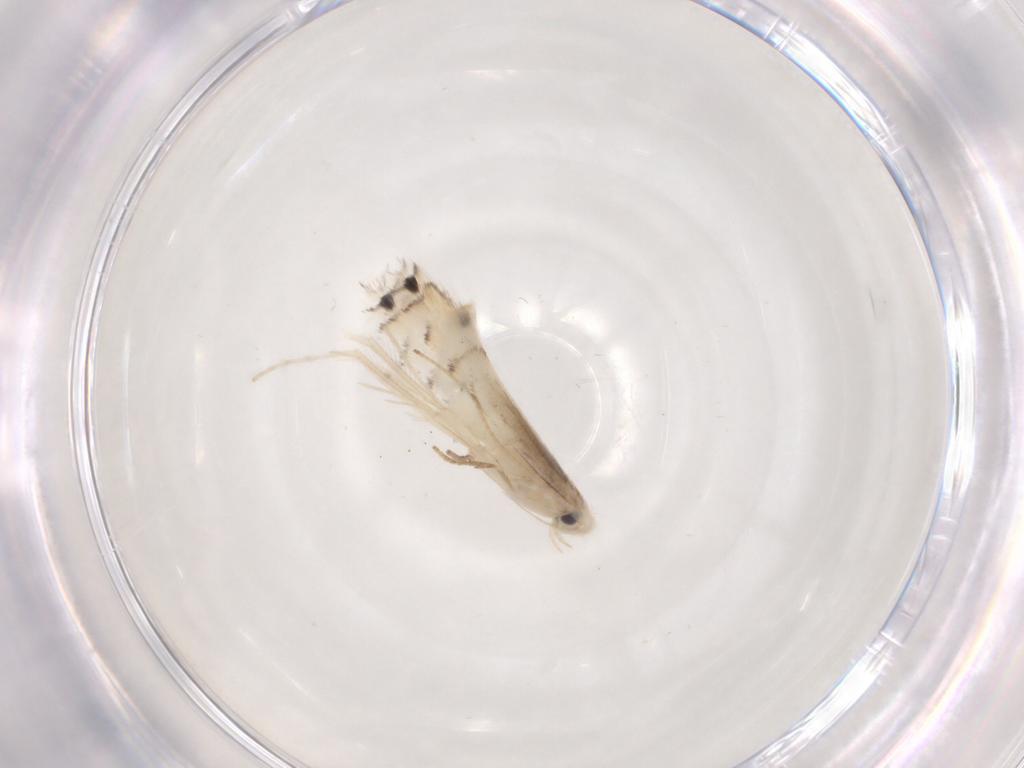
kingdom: Animalia
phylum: Arthropoda
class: Insecta
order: Lepidoptera
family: Gracillariidae
